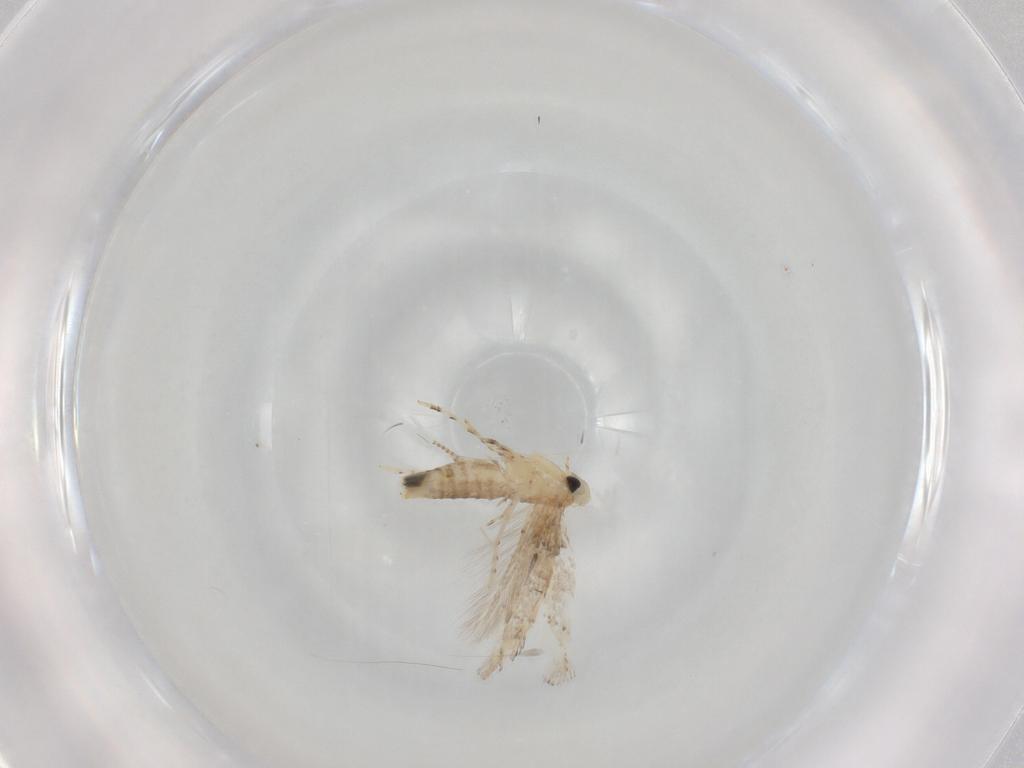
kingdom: Animalia
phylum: Arthropoda
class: Insecta
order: Lepidoptera
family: Gracillariidae
